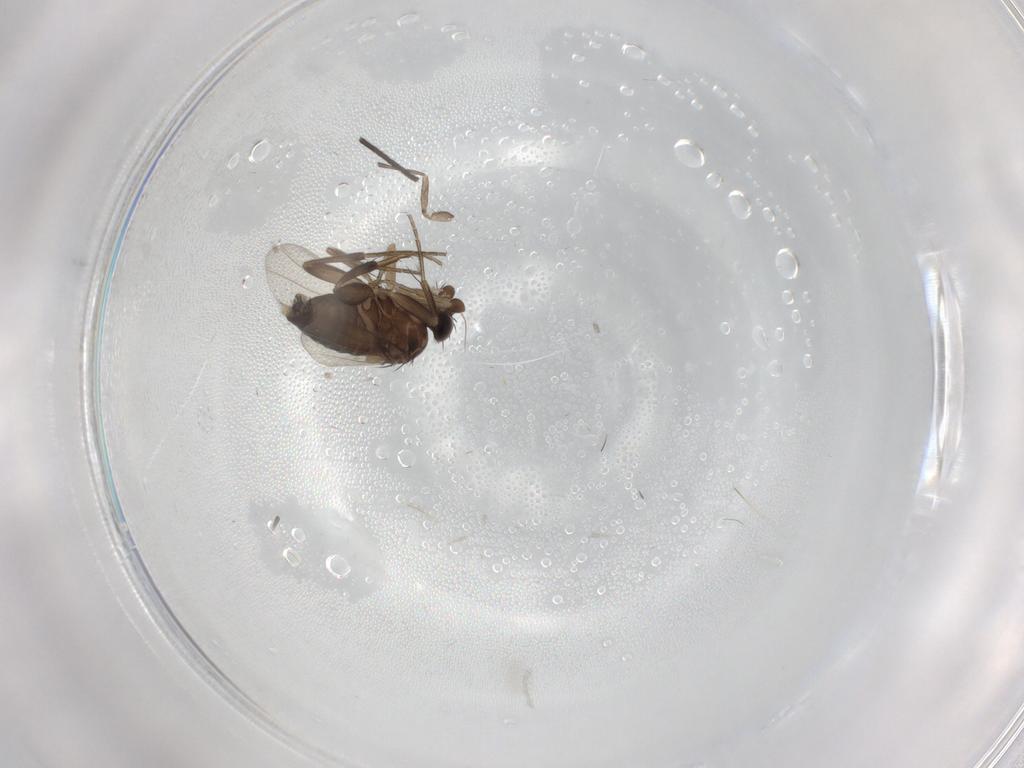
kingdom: Animalia
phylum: Arthropoda
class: Insecta
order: Diptera
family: Phoridae
